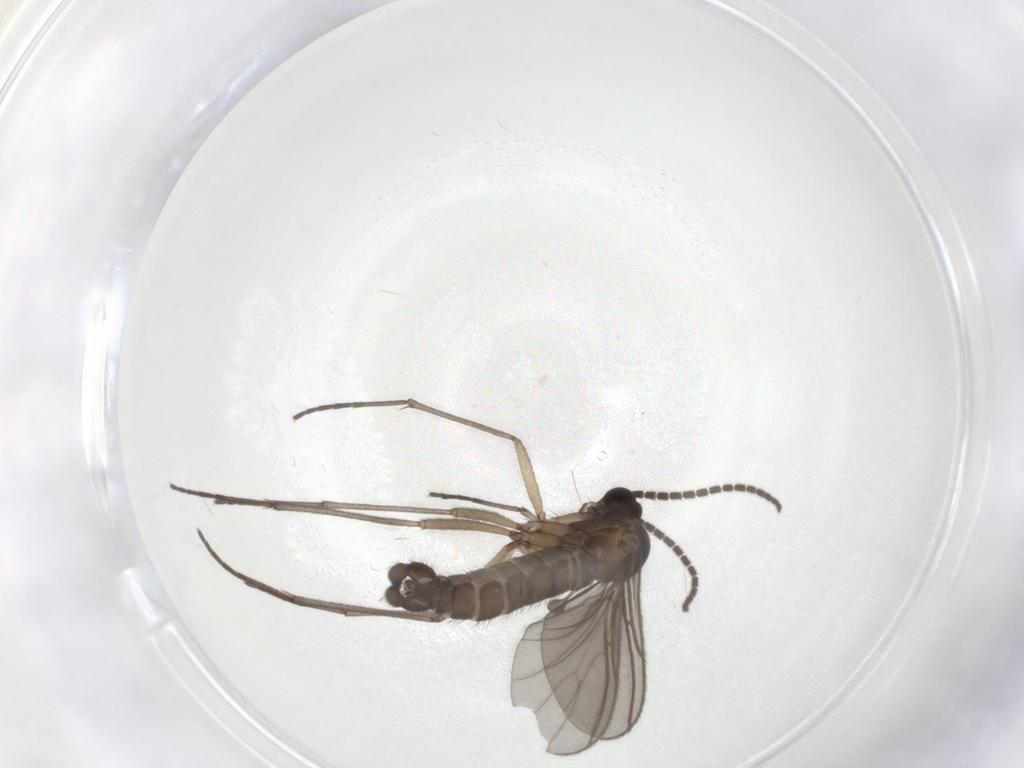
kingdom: Animalia
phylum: Arthropoda
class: Insecta
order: Diptera
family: Sciaridae
